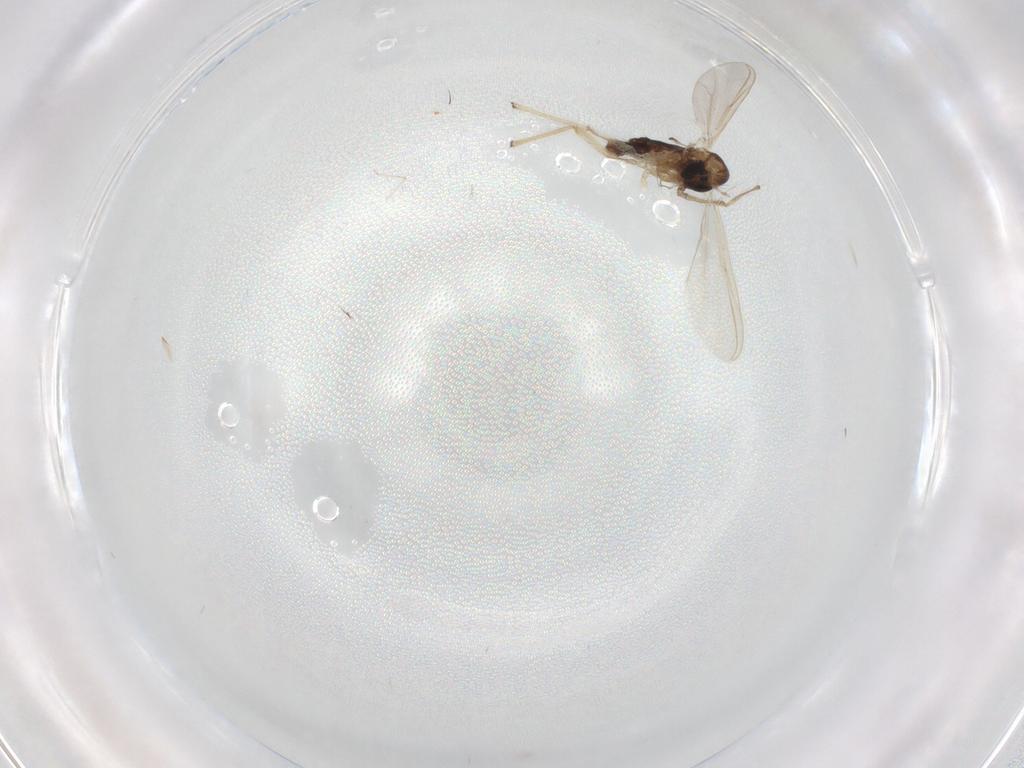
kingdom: Animalia
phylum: Arthropoda
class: Insecta
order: Diptera
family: Chironomidae
